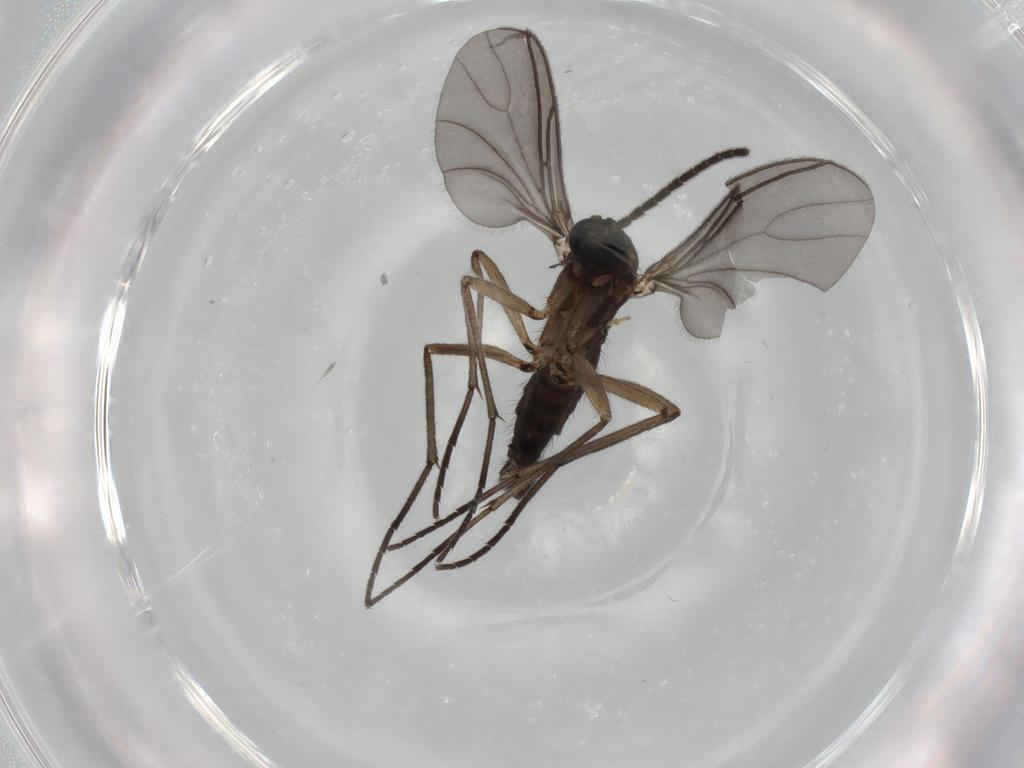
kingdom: Animalia
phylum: Arthropoda
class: Insecta
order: Diptera
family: Sciaridae
